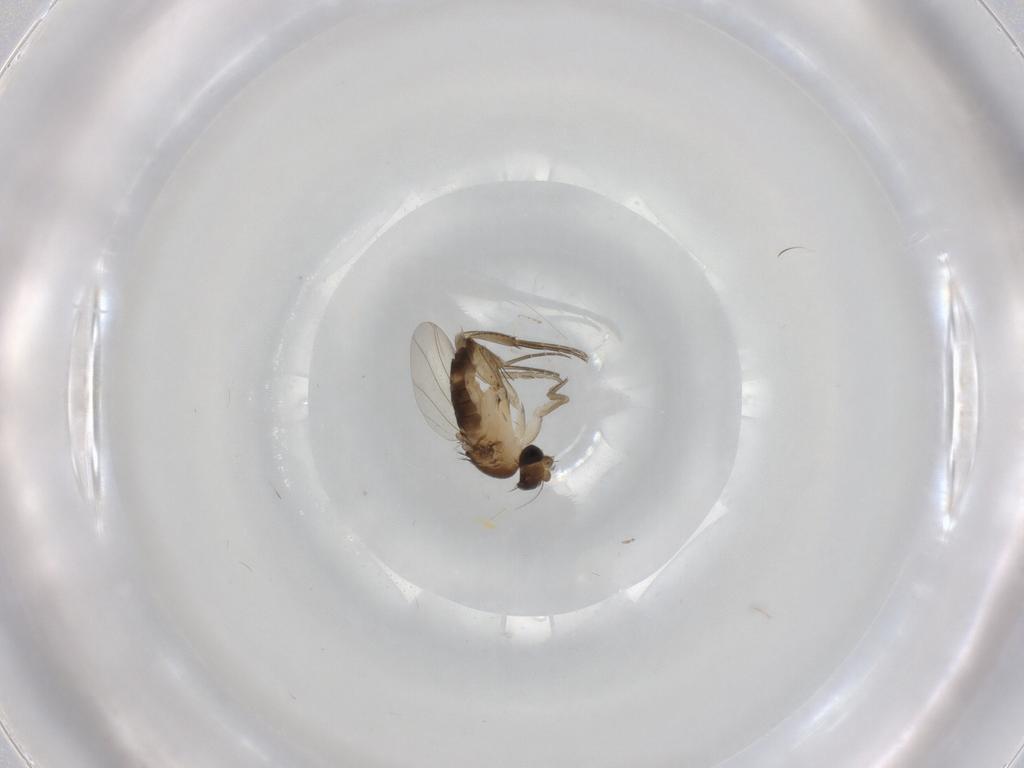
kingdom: Animalia
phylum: Arthropoda
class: Insecta
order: Diptera
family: Cecidomyiidae
